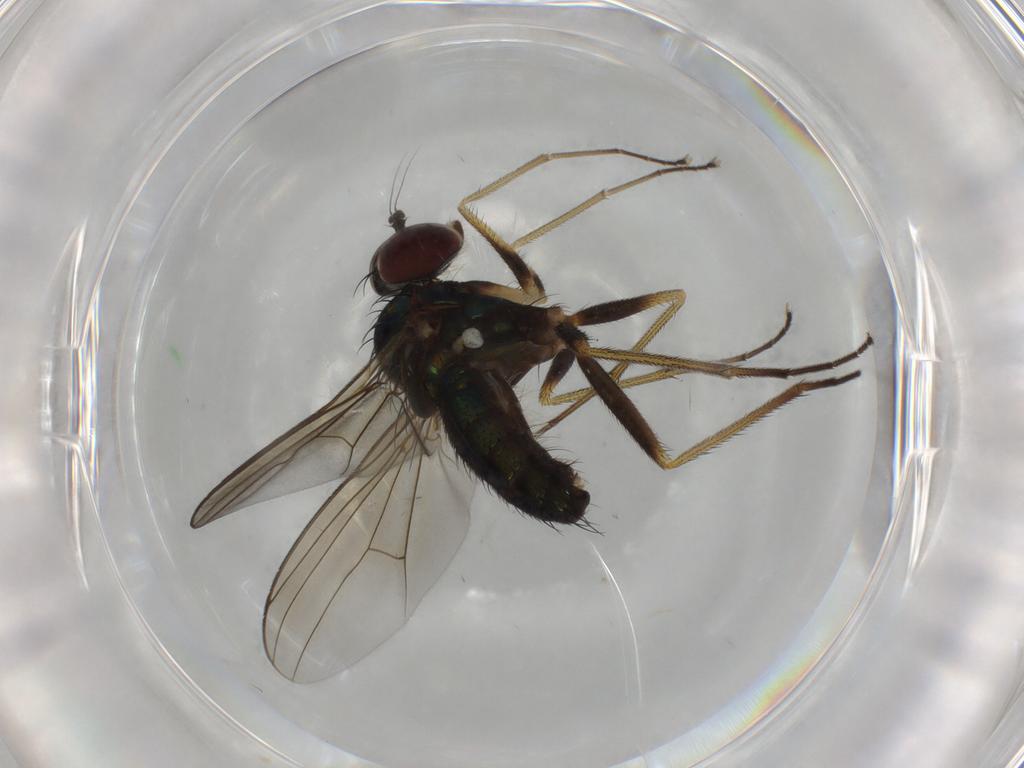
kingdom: Animalia
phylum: Arthropoda
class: Insecta
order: Diptera
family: Dolichopodidae
